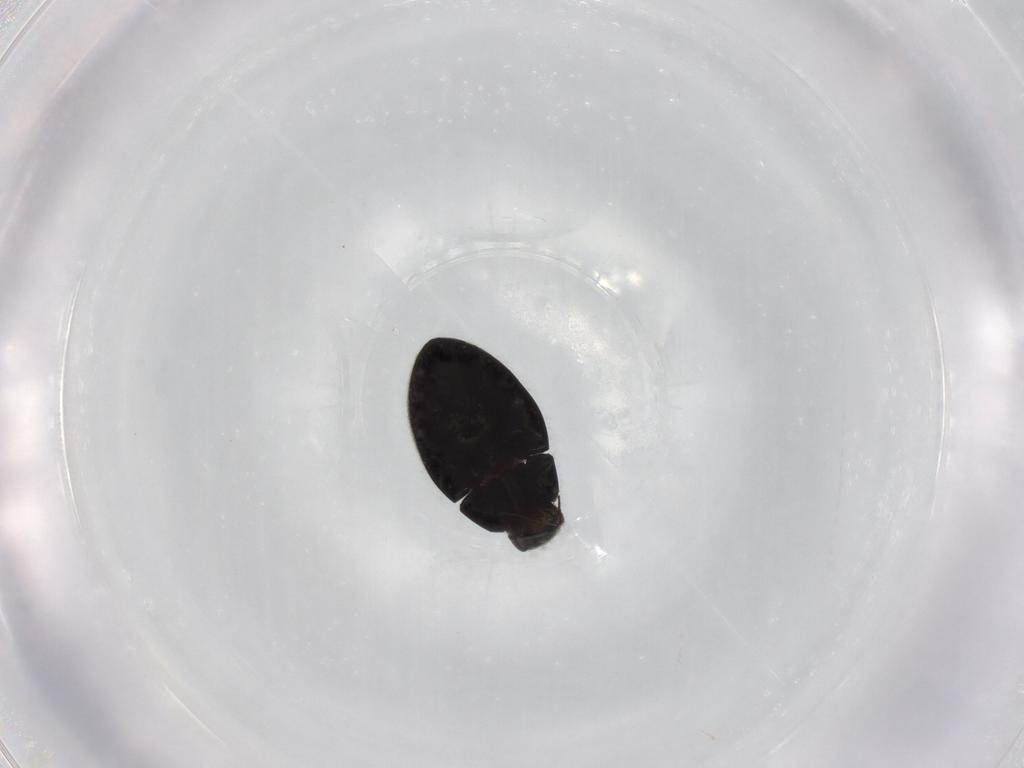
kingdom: Animalia
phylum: Arthropoda
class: Insecta
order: Coleoptera
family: Limnichidae
